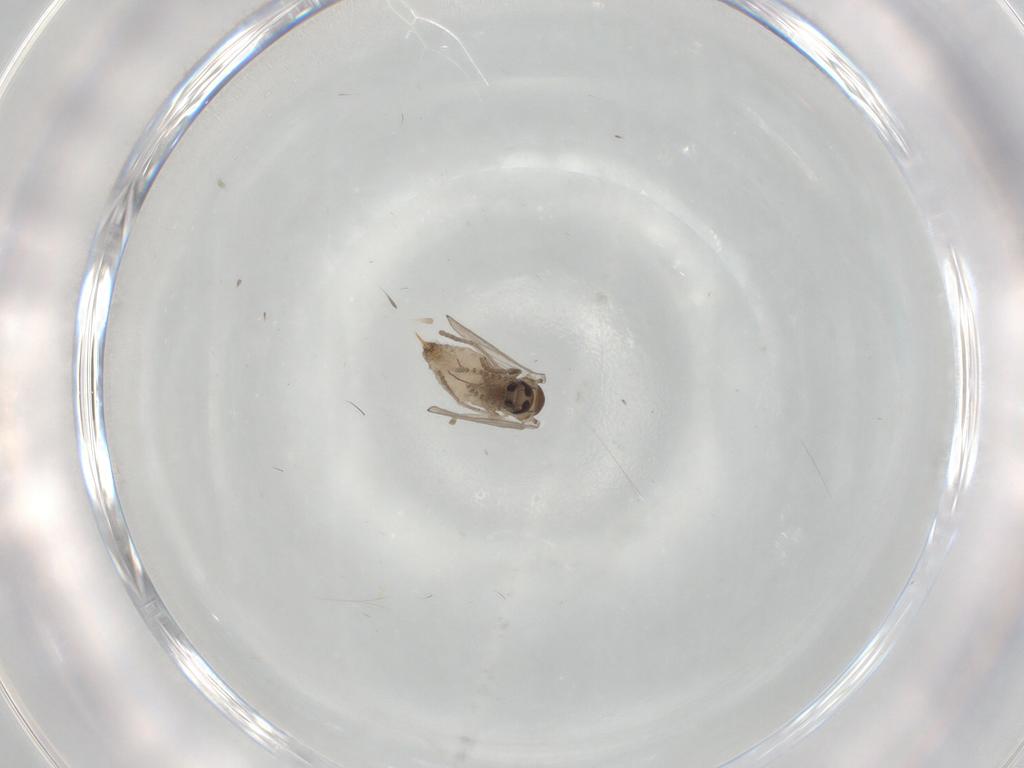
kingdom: Animalia
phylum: Arthropoda
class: Insecta
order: Diptera
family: Psychodidae
